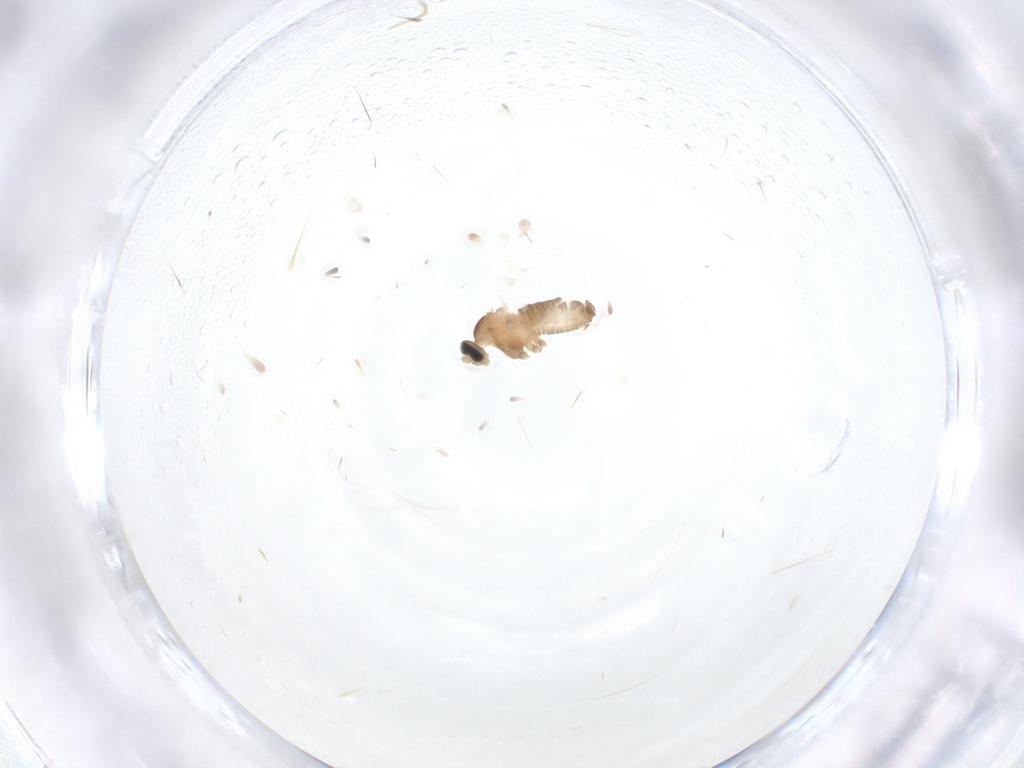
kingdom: Animalia
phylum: Arthropoda
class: Insecta
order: Diptera
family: Cecidomyiidae
